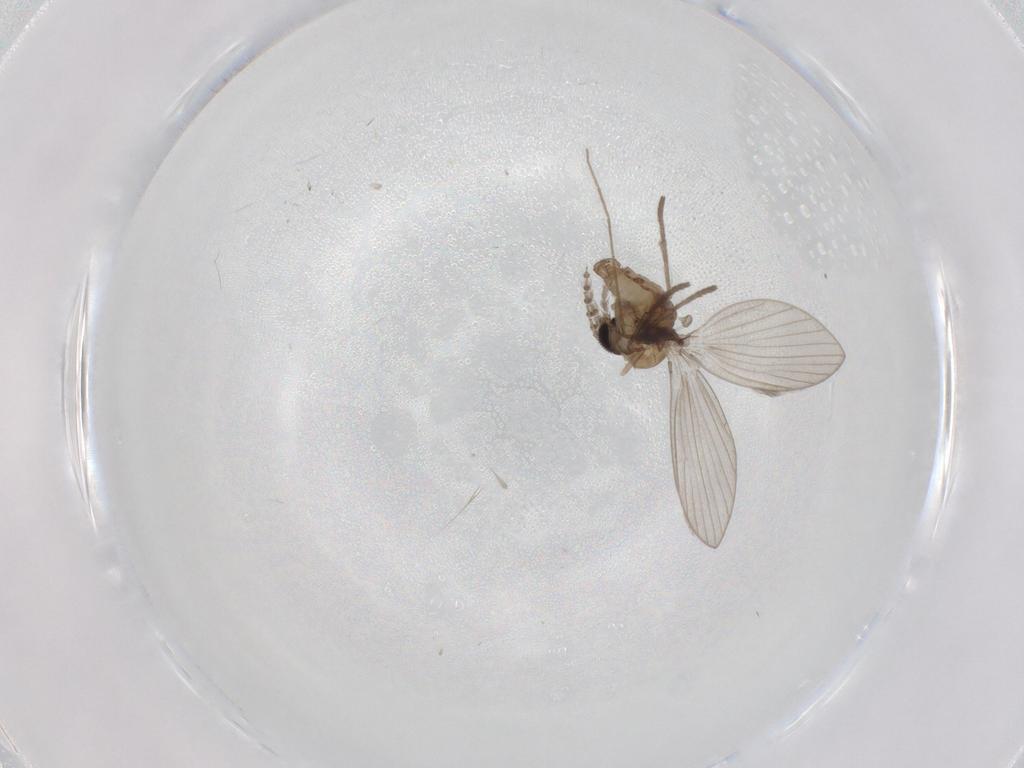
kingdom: Animalia
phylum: Arthropoda
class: Insecta
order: Diptera
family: Psychodidae
